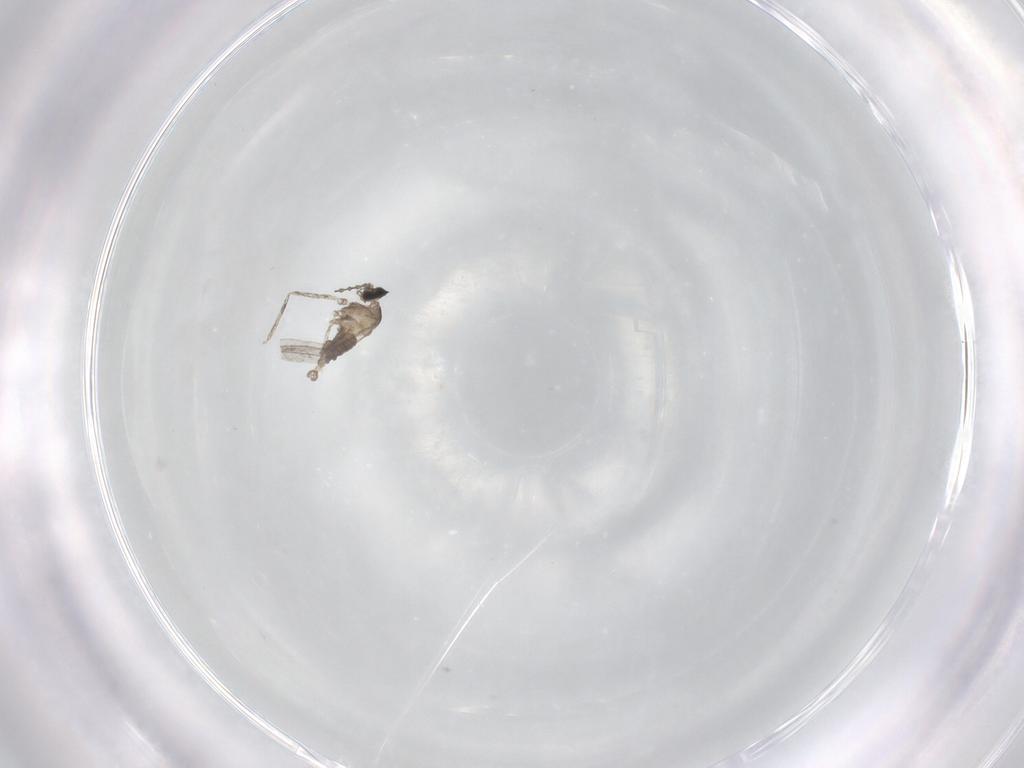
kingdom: Animalia
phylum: Arthropoda
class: Insecta
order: Diptera
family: Cecidomyiidae
